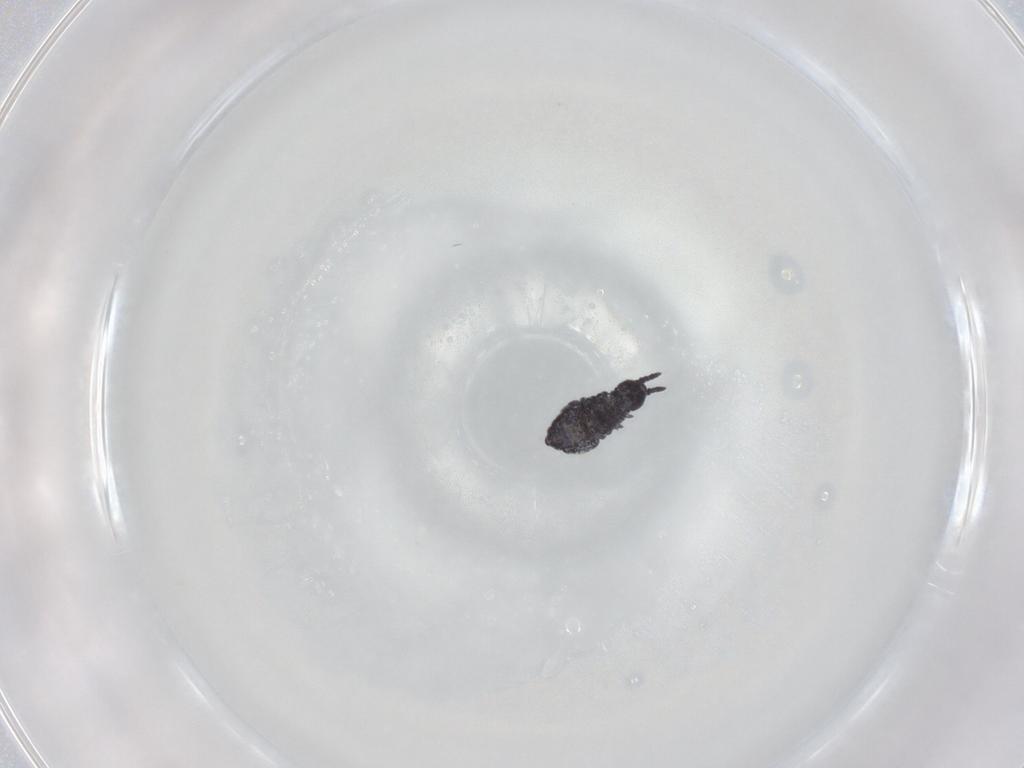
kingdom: Animalia
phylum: Arthropoda
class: Collembola
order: Poduromorpha
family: Brachystomellidae
